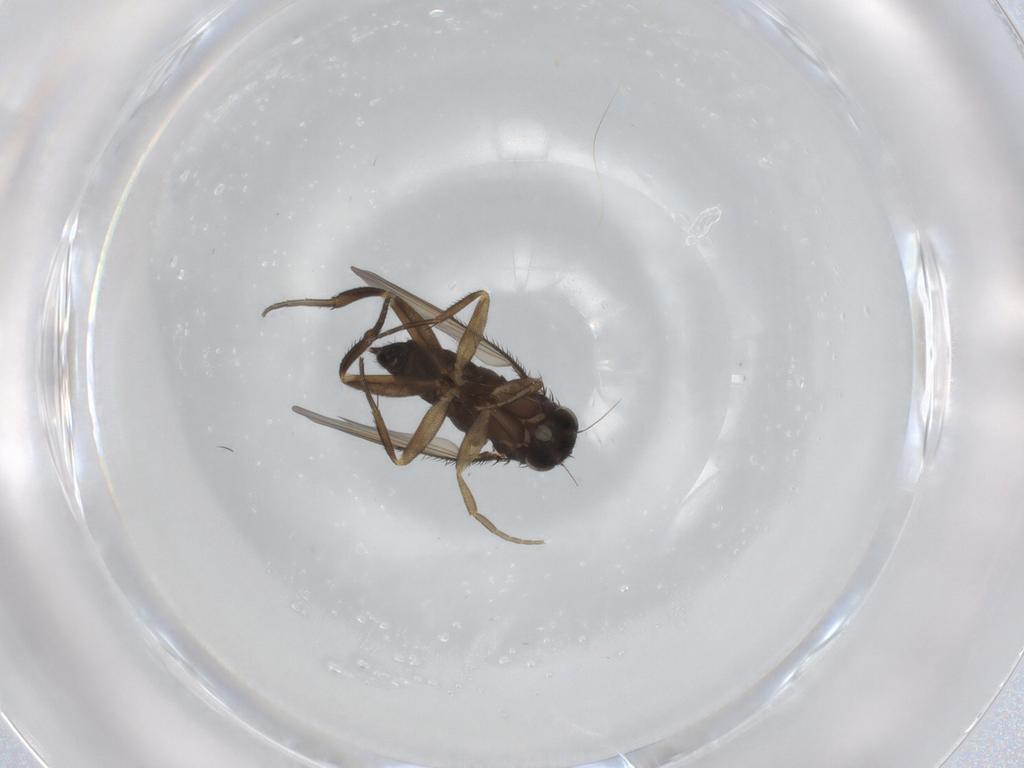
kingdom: Animalia
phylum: Arthropoda
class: Insecta
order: Diptera
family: Phoridae
